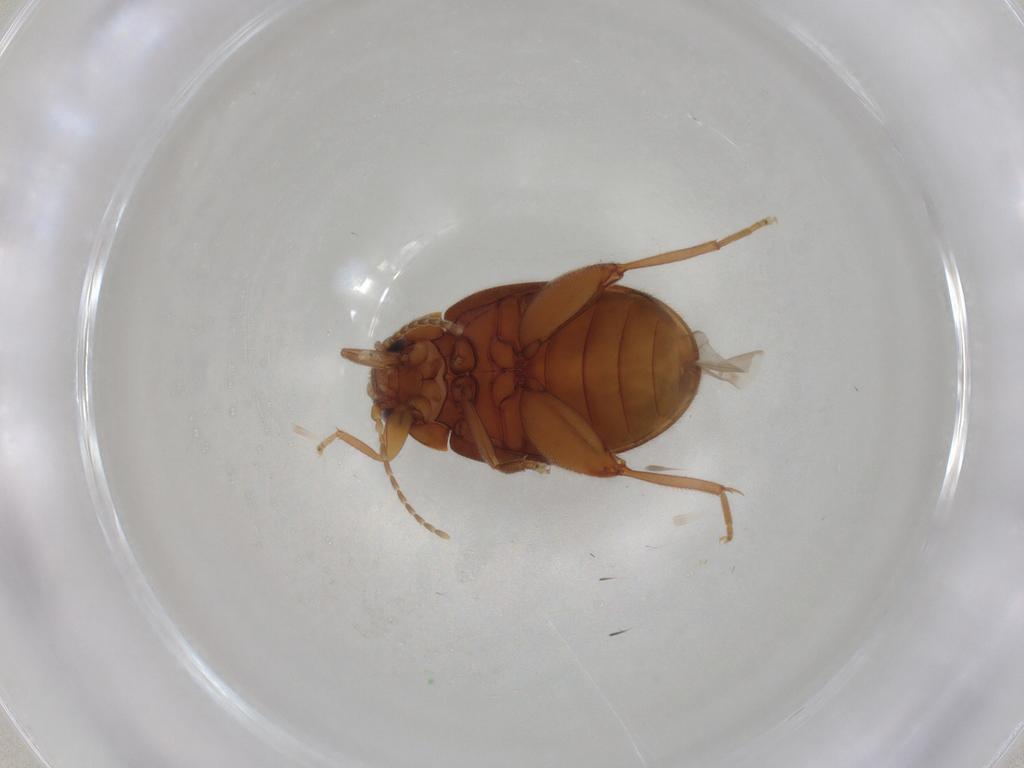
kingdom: Animalia
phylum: Arthropoda
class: Insecta
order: Coleoptera
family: Scirtidae
